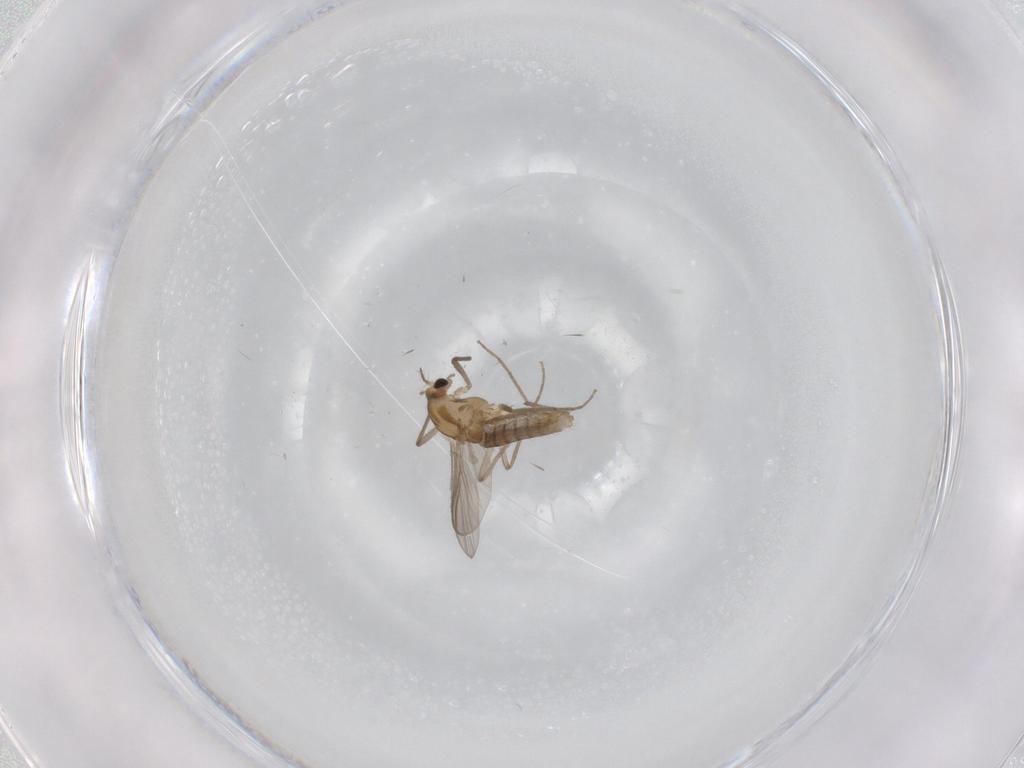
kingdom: Animalia
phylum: Arthropoda
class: Insecta
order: Diptera
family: Chironomidae
